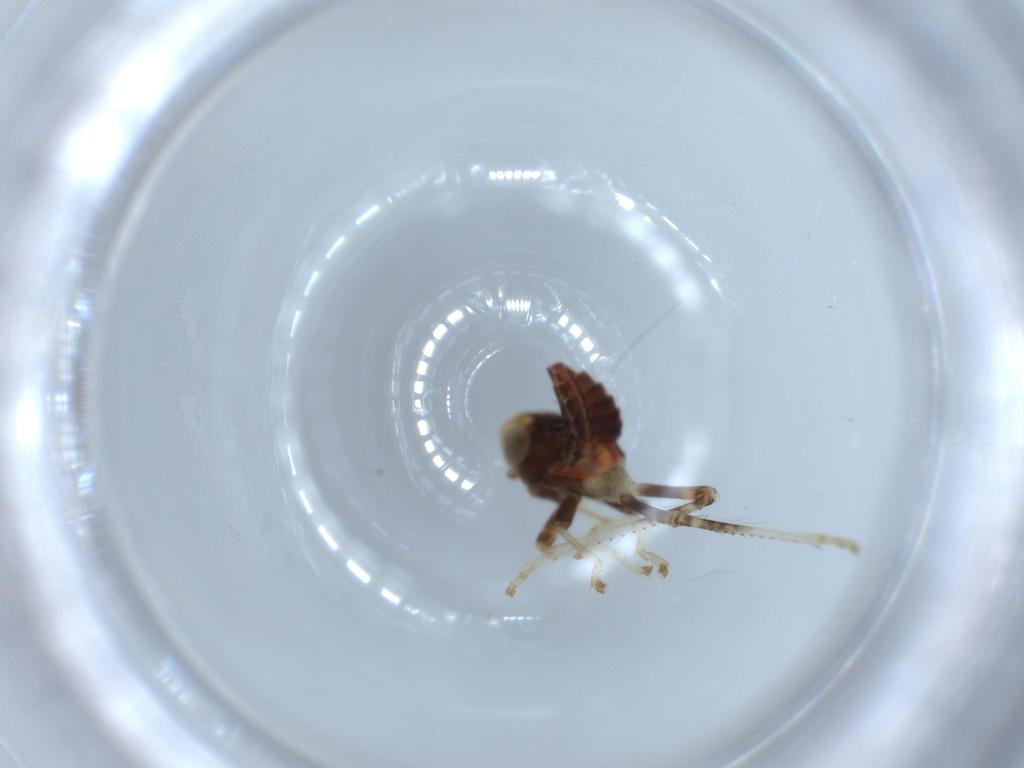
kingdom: Animalia
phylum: Arthropoda
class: Insecta
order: Hemiptera
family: Cicadellidae
